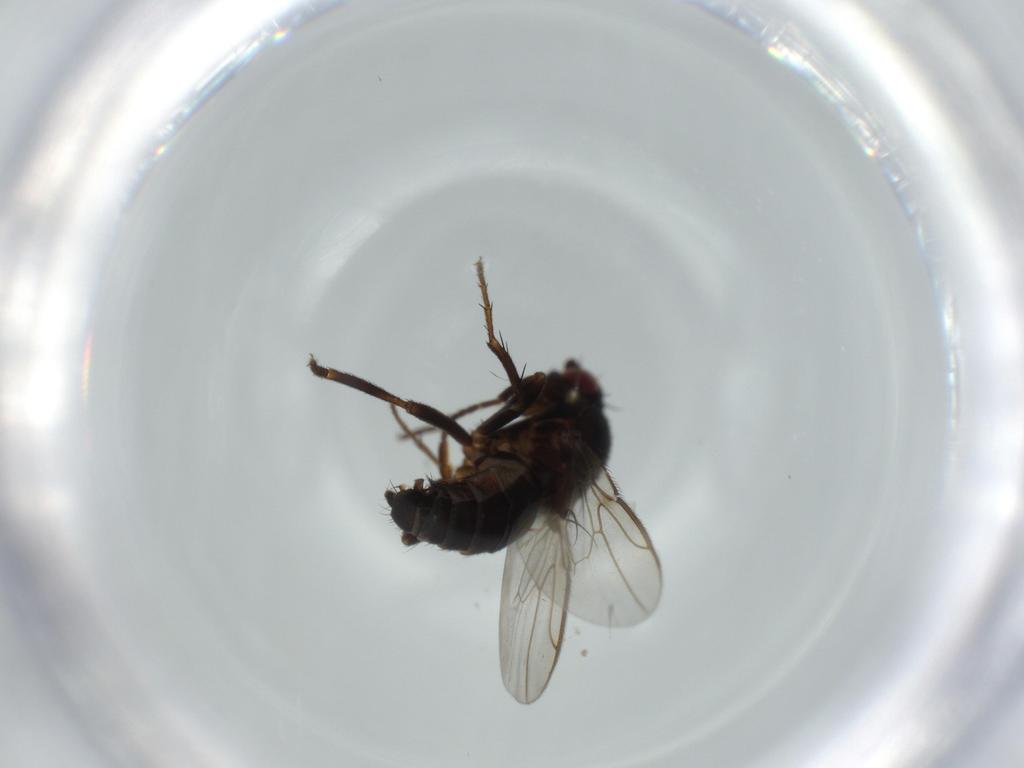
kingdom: Animalia
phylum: Arthropoda
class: Insecta
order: Diptera
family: Sphaeroceridae
